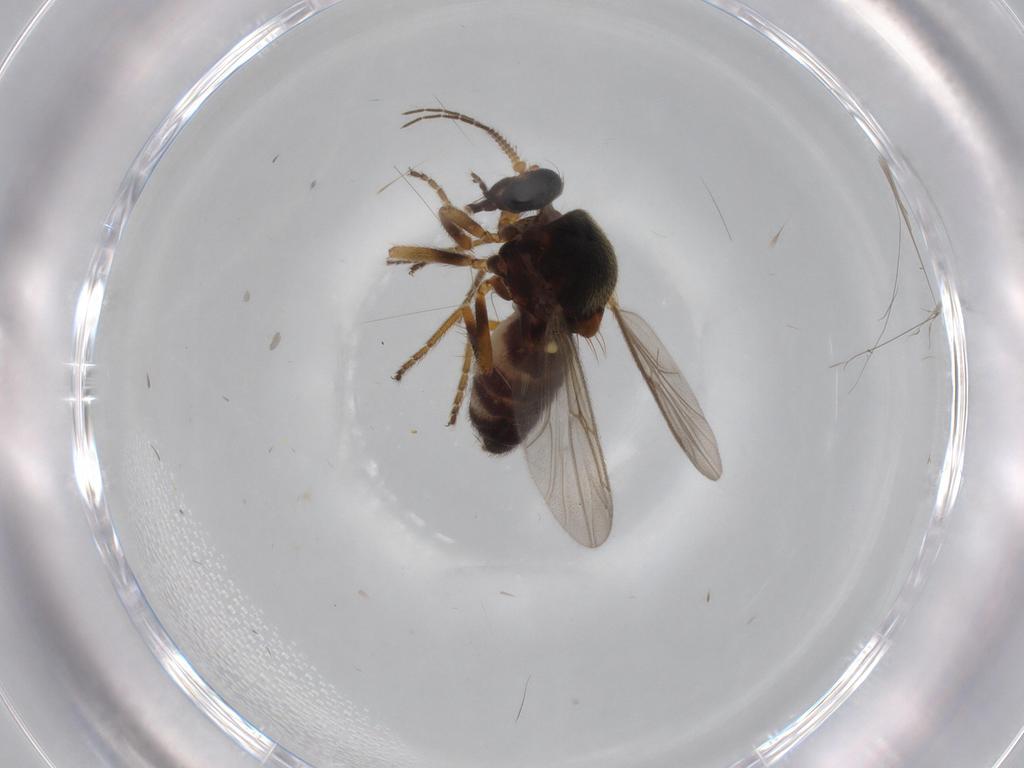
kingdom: Animalia
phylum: Arthropoda
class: Insecta
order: Diptera
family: Ceratopogonidae
